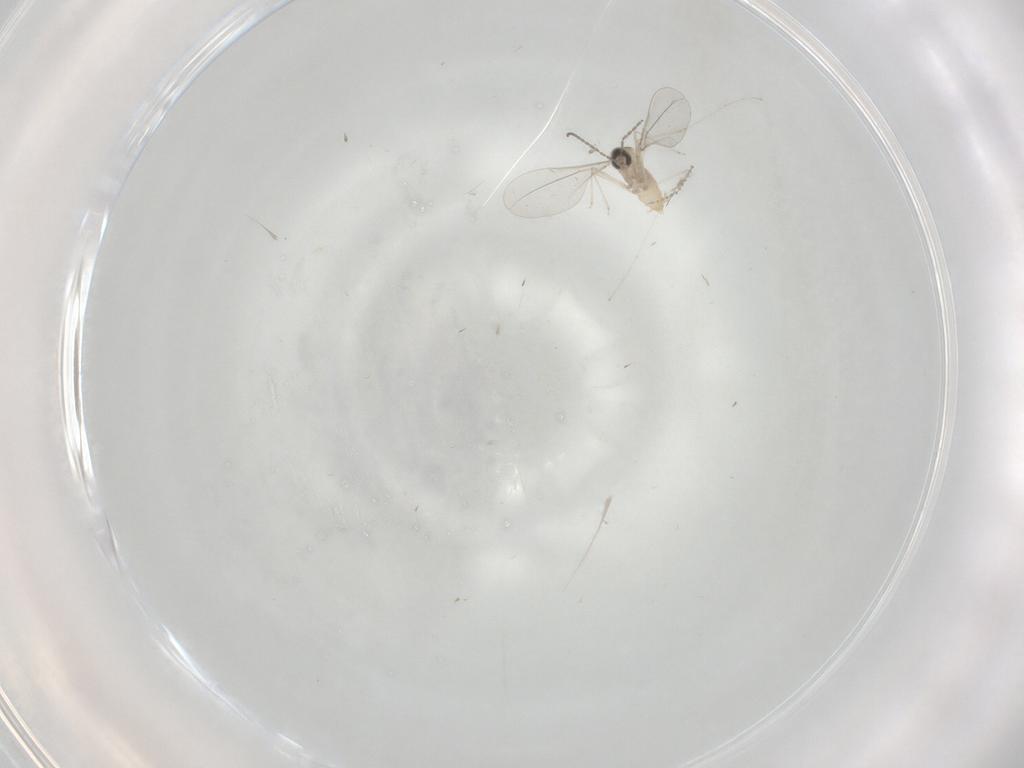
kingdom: Animalia
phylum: Arthropoda
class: Insecta
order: Diptera
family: Cecidomyiidae
